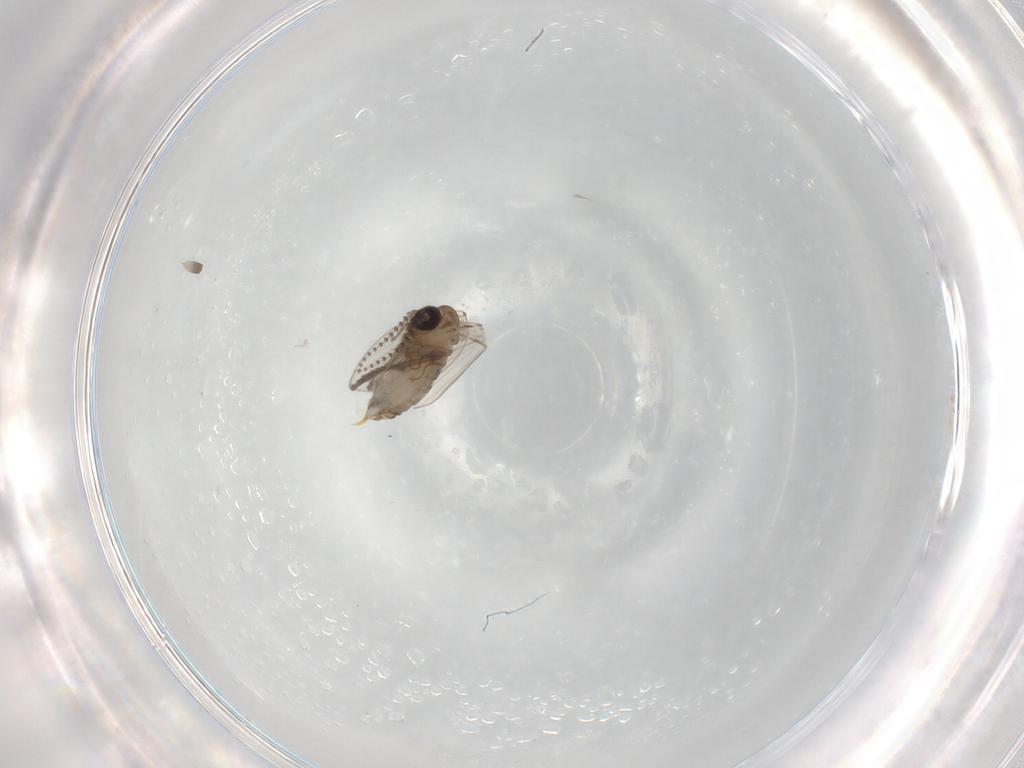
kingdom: Animalia
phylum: Arthropoda
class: Insecta
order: Diptera
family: Psychodidae
